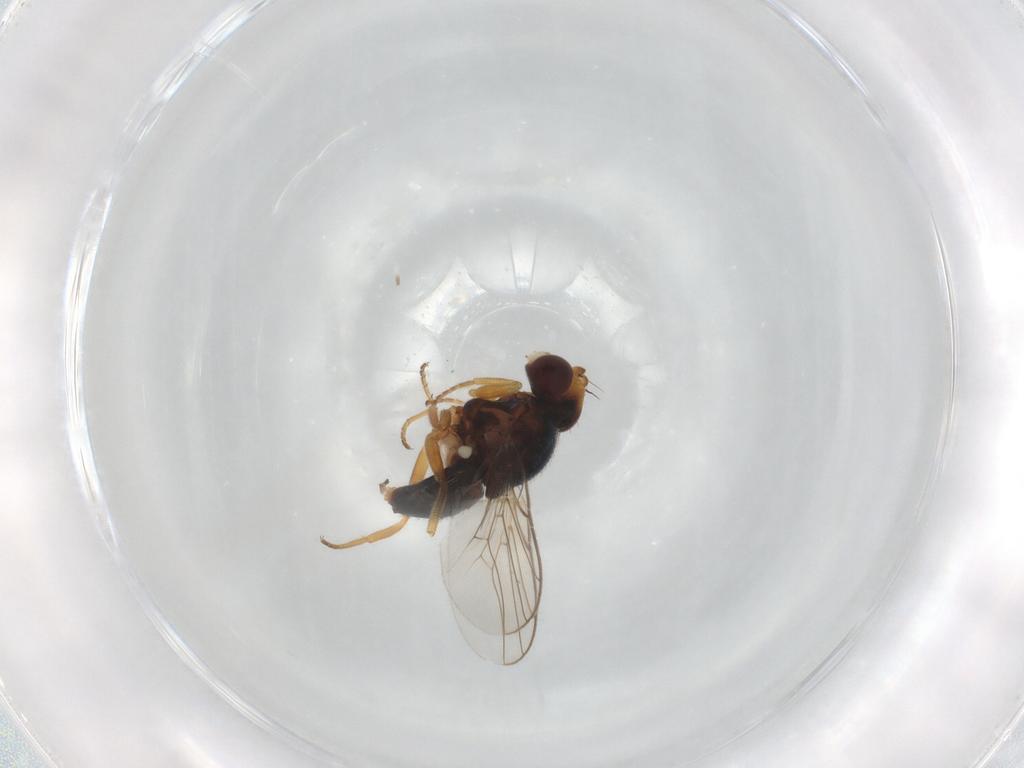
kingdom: Animalia
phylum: Arthropoda
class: Insecta
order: Diptera
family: Chloropidae
